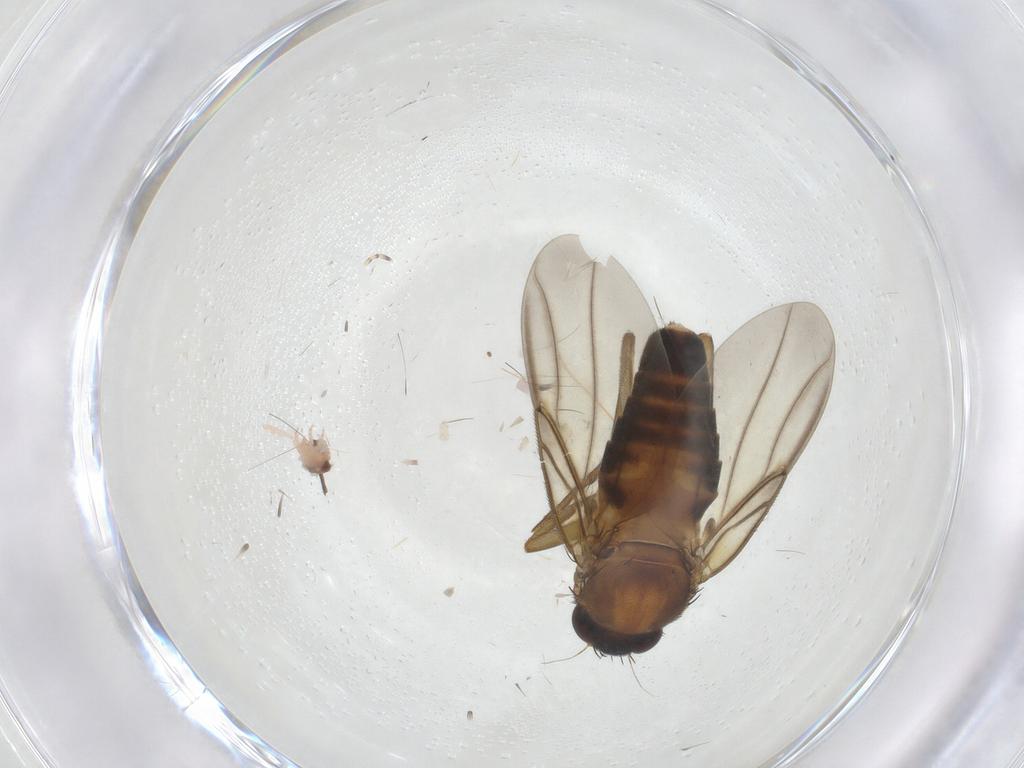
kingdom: Animalia
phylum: Arthropoda
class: Insecta
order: Diptera
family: Phoridae
